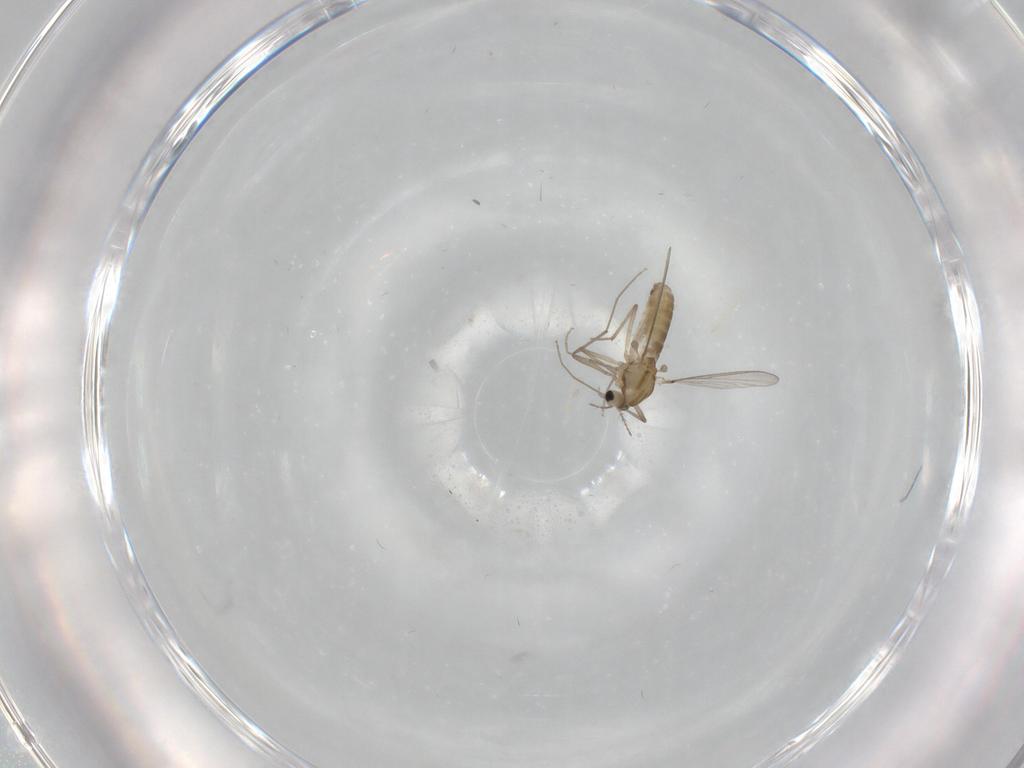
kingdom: Animalia
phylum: Arthropoda
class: Insecta
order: Diptera
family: Chironomidae
